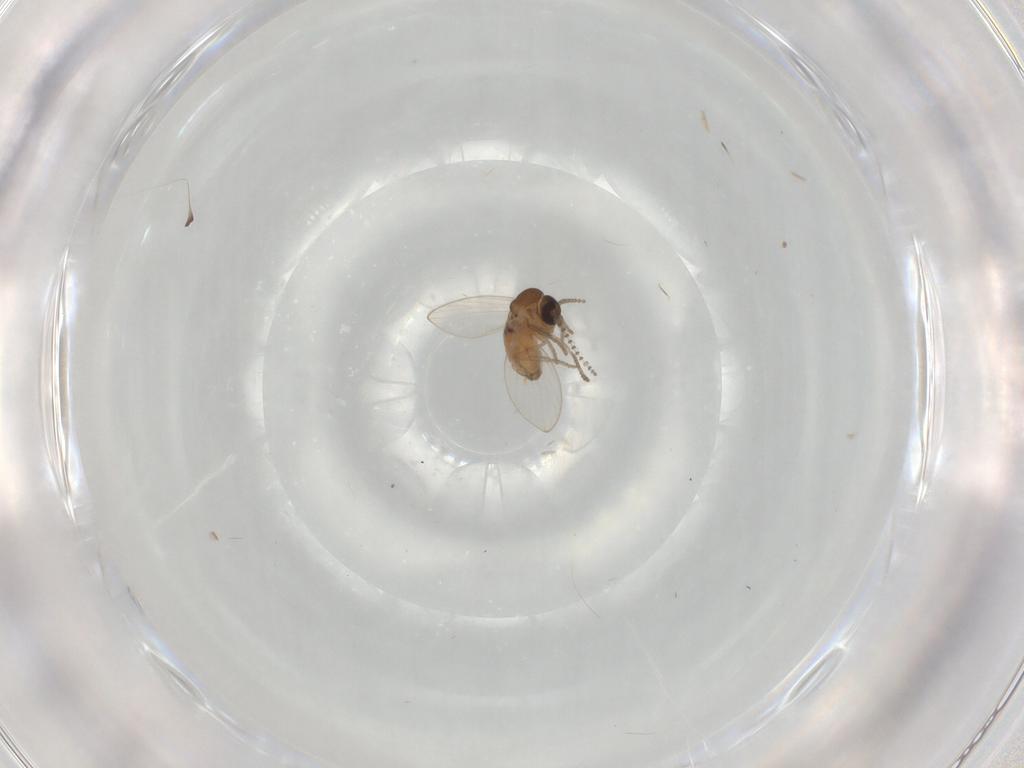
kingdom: Animalia
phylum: Arthropoda
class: Insecta
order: Diptera
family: Psychodidae
